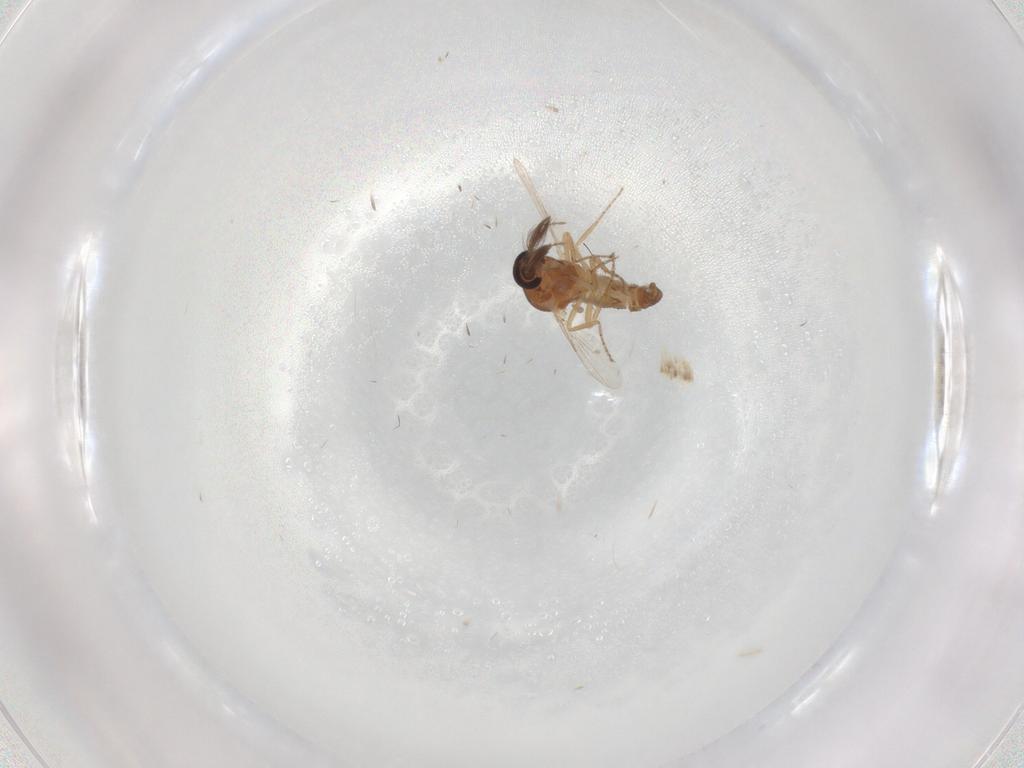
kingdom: Animalia
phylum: Arthropoda
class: Insecta
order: Diptera
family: Ceratopogonidae
